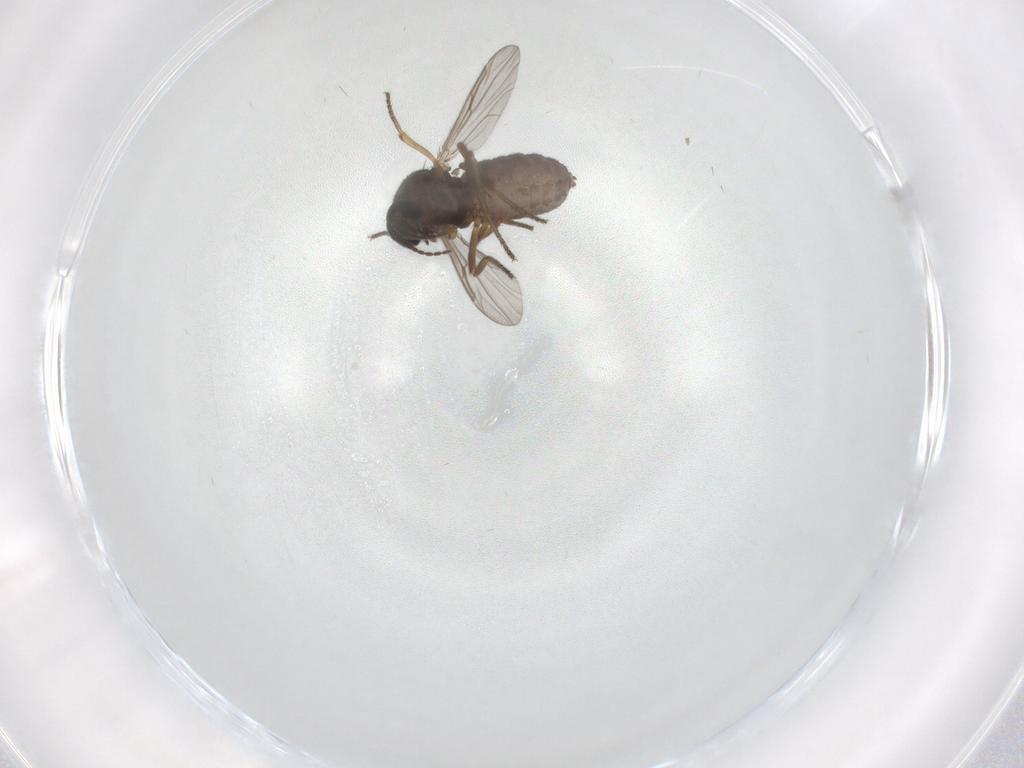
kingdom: Animalia
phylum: Arthropoda
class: Insecta
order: Diptera
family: Ceratopogonidae
